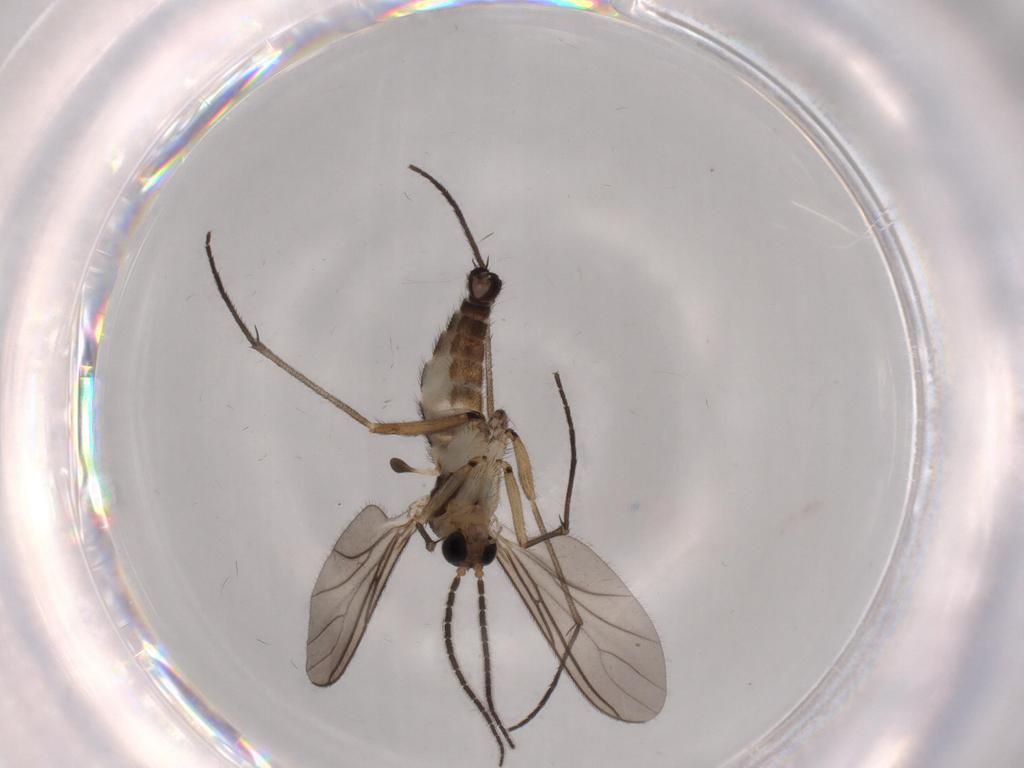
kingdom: Animalia
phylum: Arthropoda
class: Insecta
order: Diptera
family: Sciaridae
